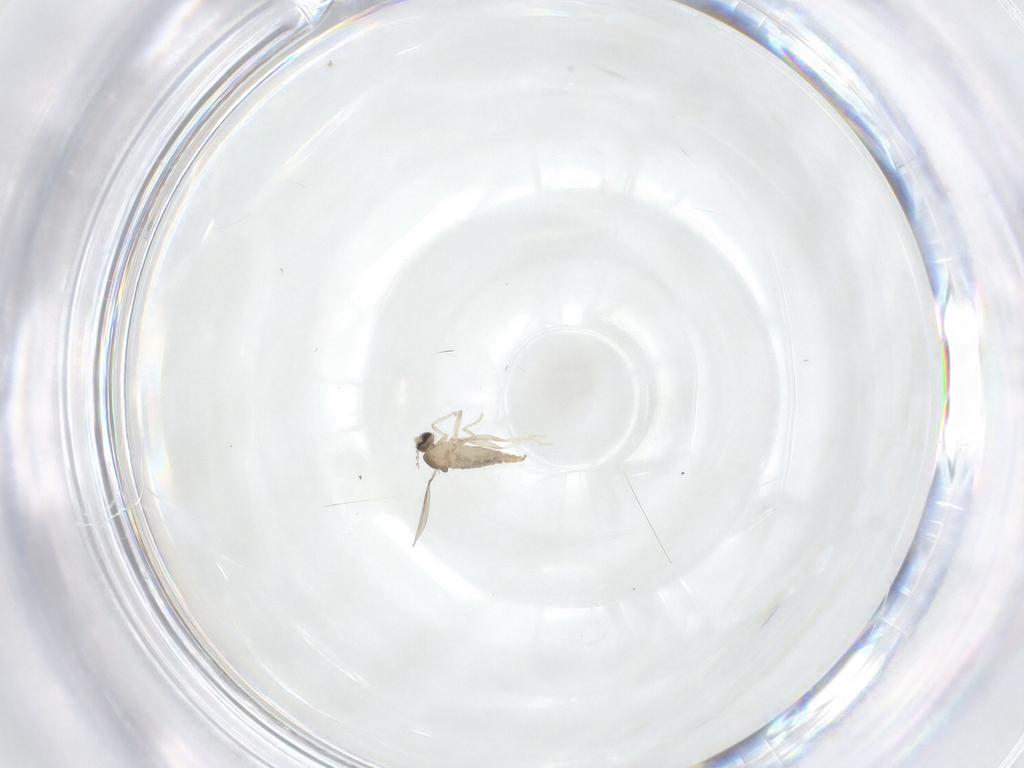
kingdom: Animalia
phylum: Arthropoda
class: Insecta
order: Diptera
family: Cecidomyiidae
